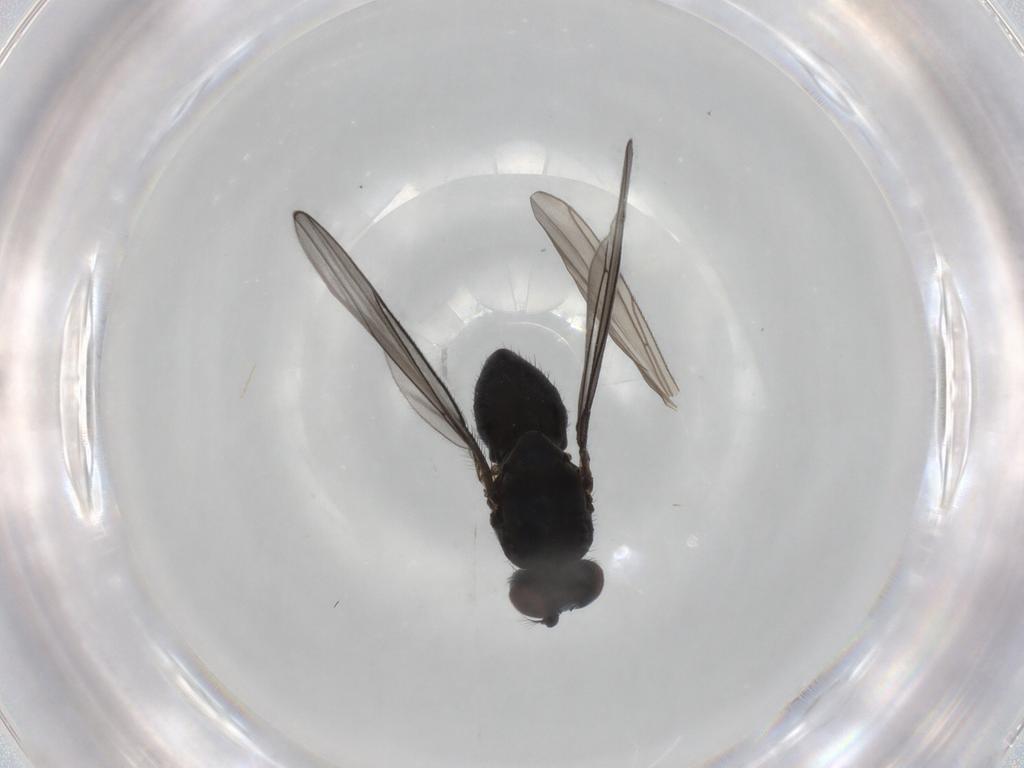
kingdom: Animalia
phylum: Arthropoda
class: Insecta
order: Diptera
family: Ephydridae
